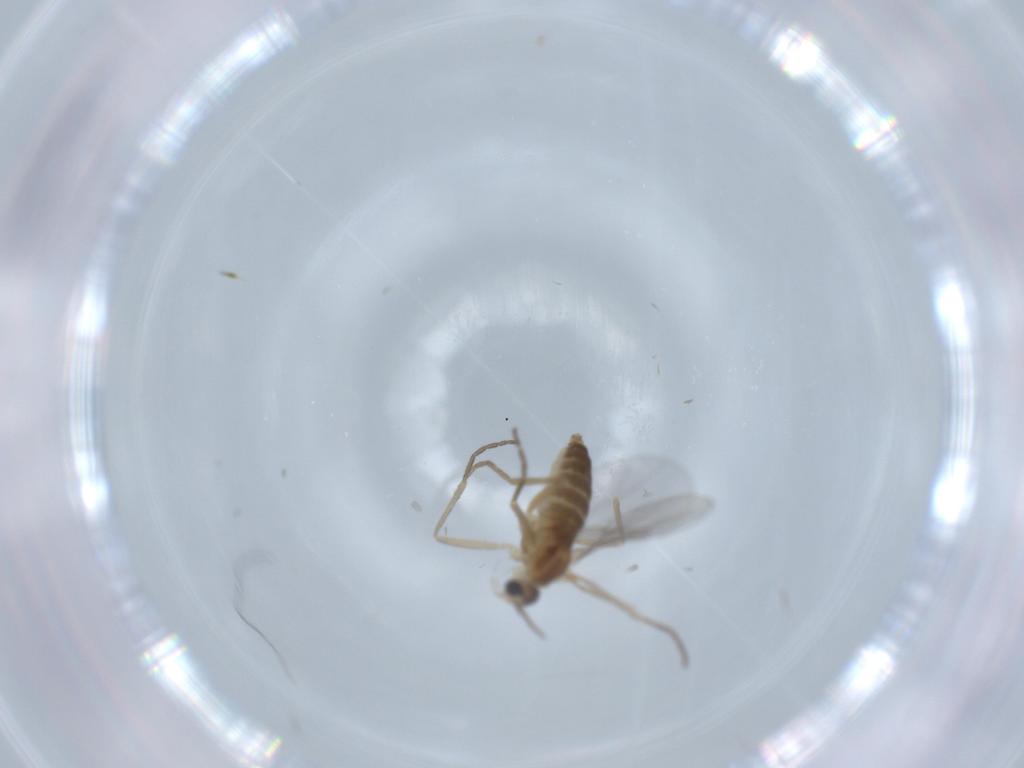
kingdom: Animalia
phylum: Arthropoda
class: Insecta
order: Diptera
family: Cecidomyiidae
